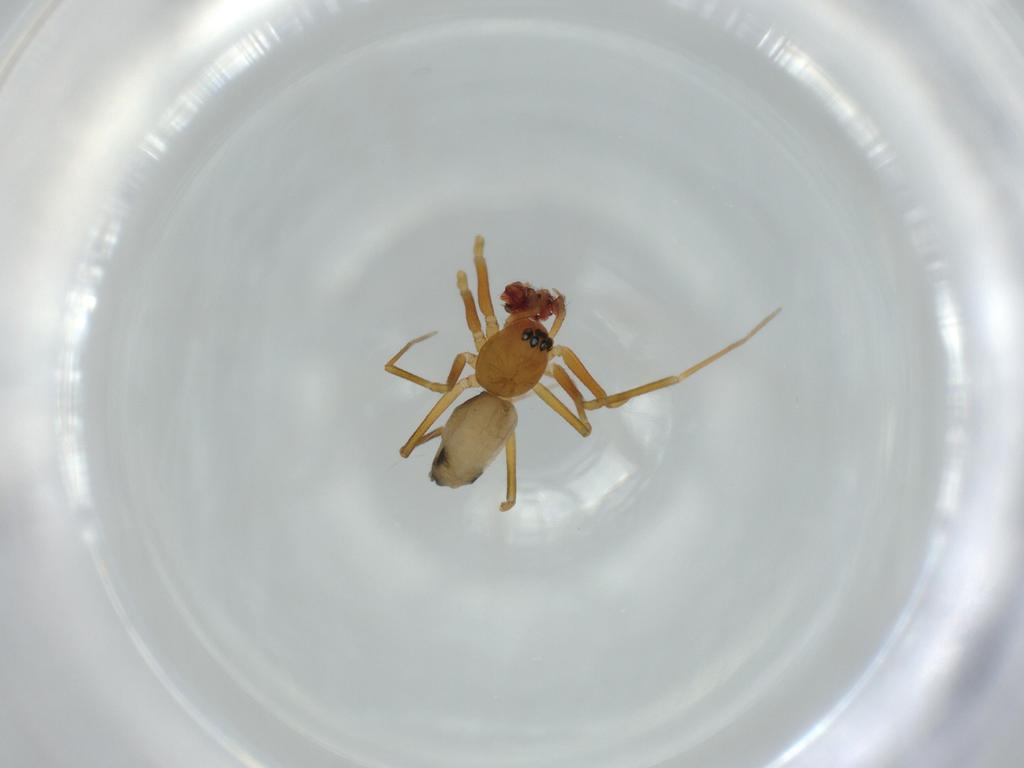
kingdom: Animalia
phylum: Arthropoda
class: Arachnida
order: Araneae
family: Linyphiidae
